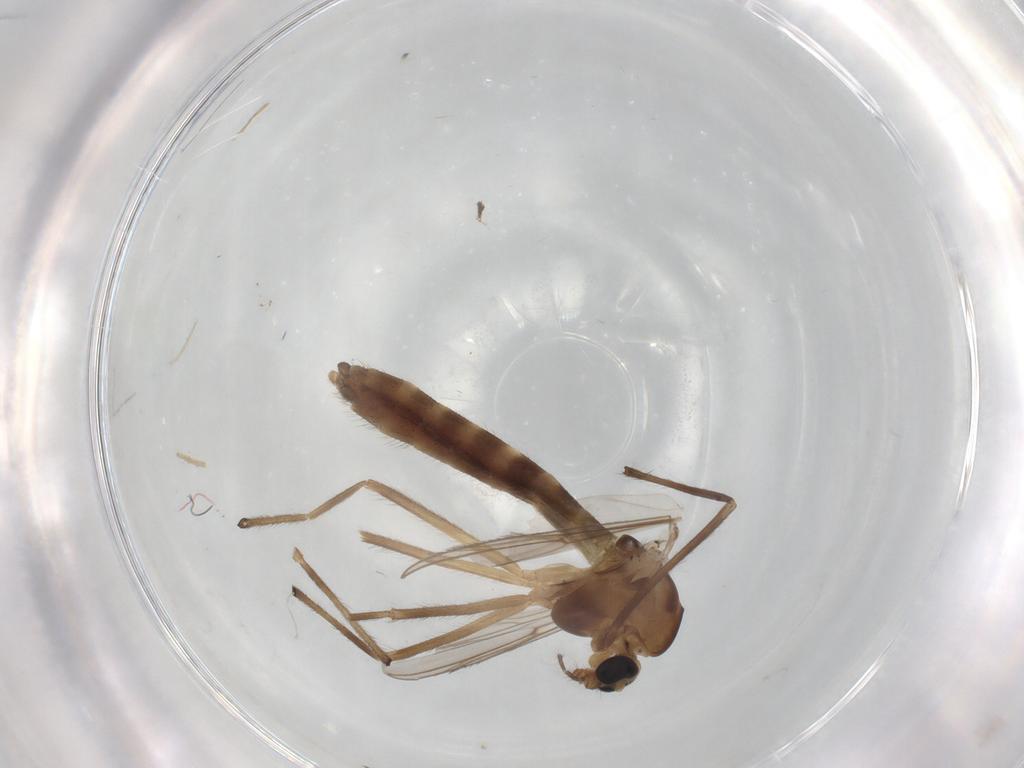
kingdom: Animalia
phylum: Arthropoda
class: Insecta
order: Diptera
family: Chironomidae
